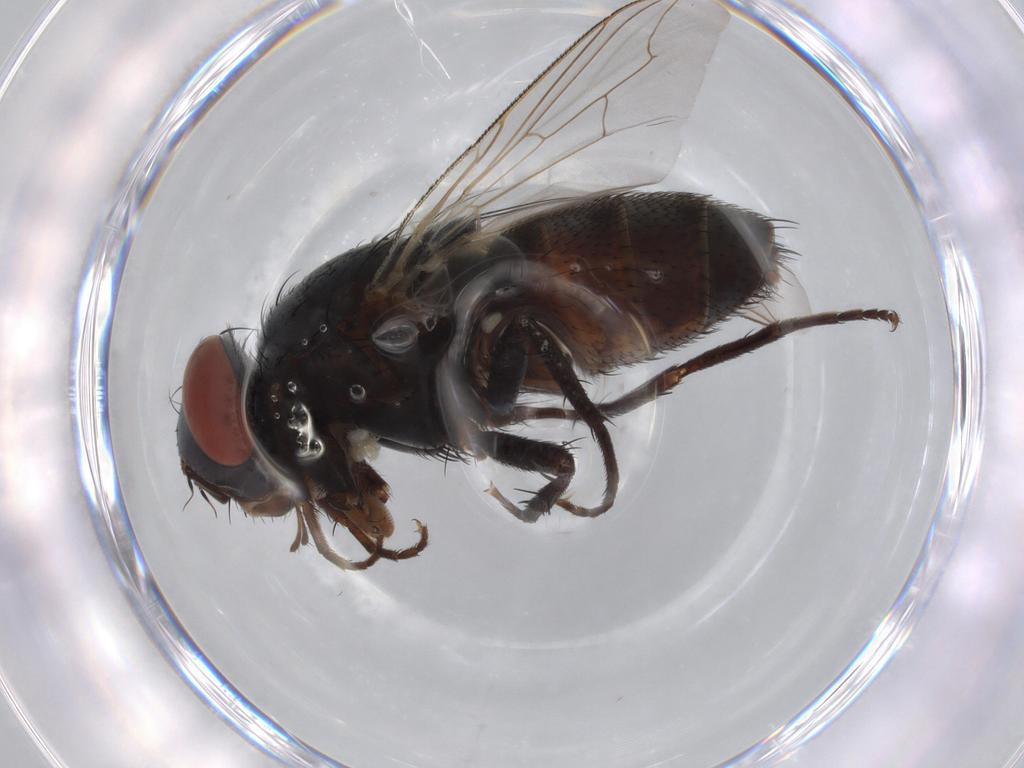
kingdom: Animalia
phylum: Arthropoda
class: Insecta
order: Diptera
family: Sarcophagidae
